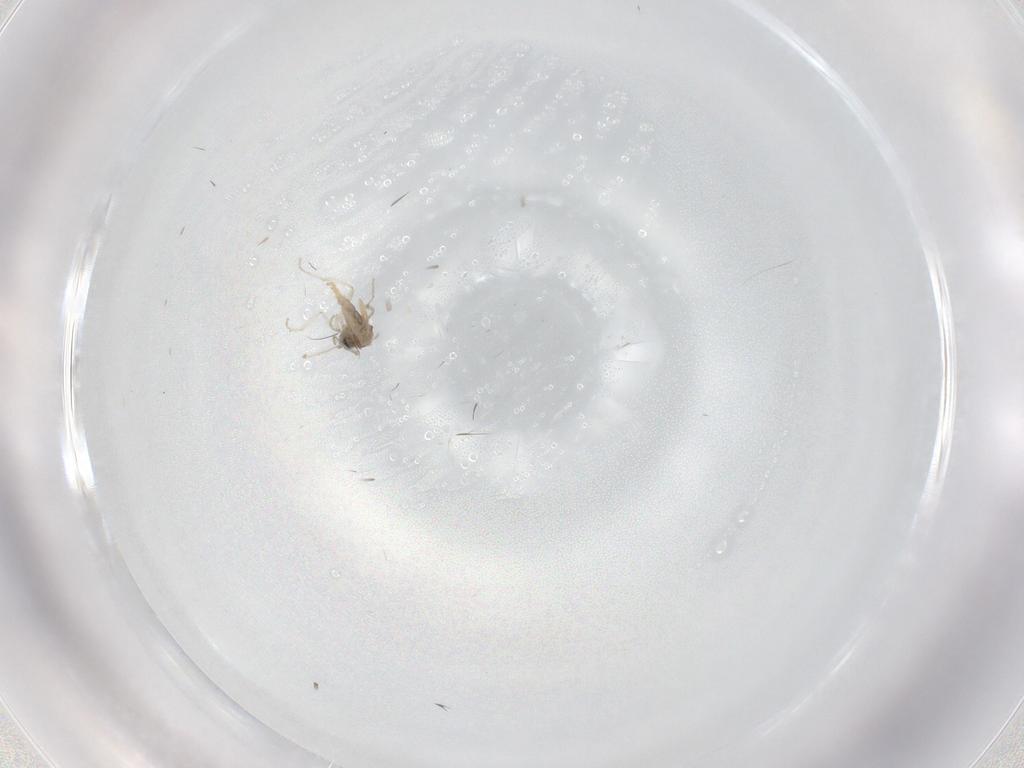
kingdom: Animalia
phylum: Arthropoda
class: Insecta
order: Diptera
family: Cecidomyiidae
